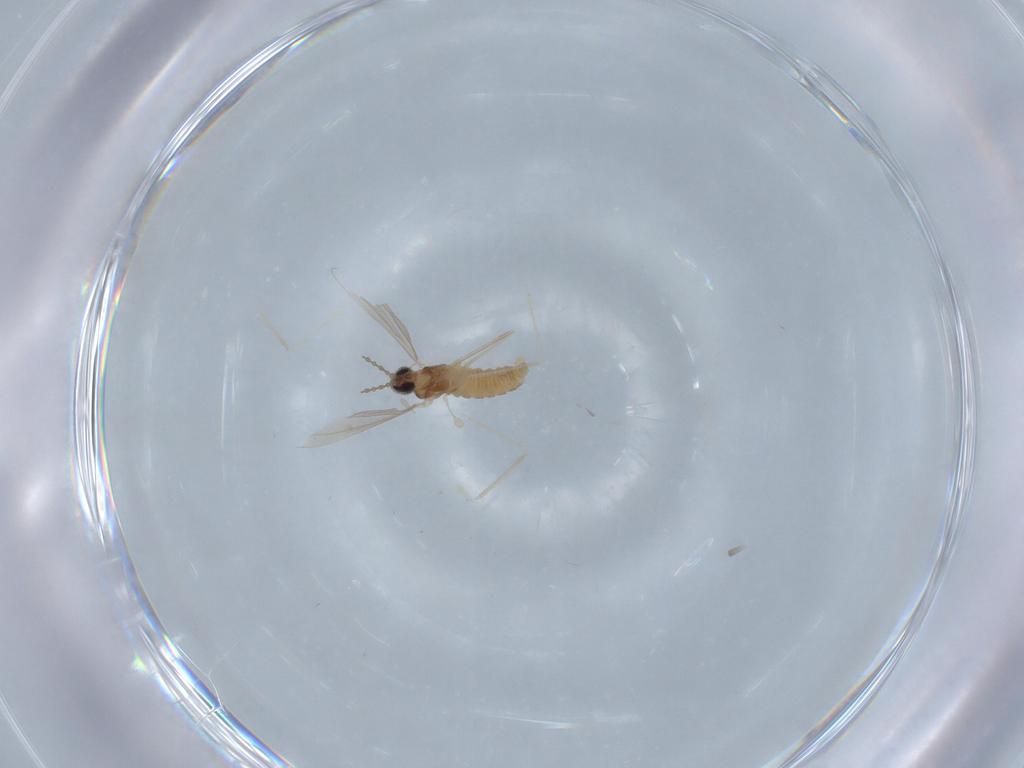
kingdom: Animalia
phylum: Arthropoda
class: Insecta
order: Diptera
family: Cecidomyiidae
